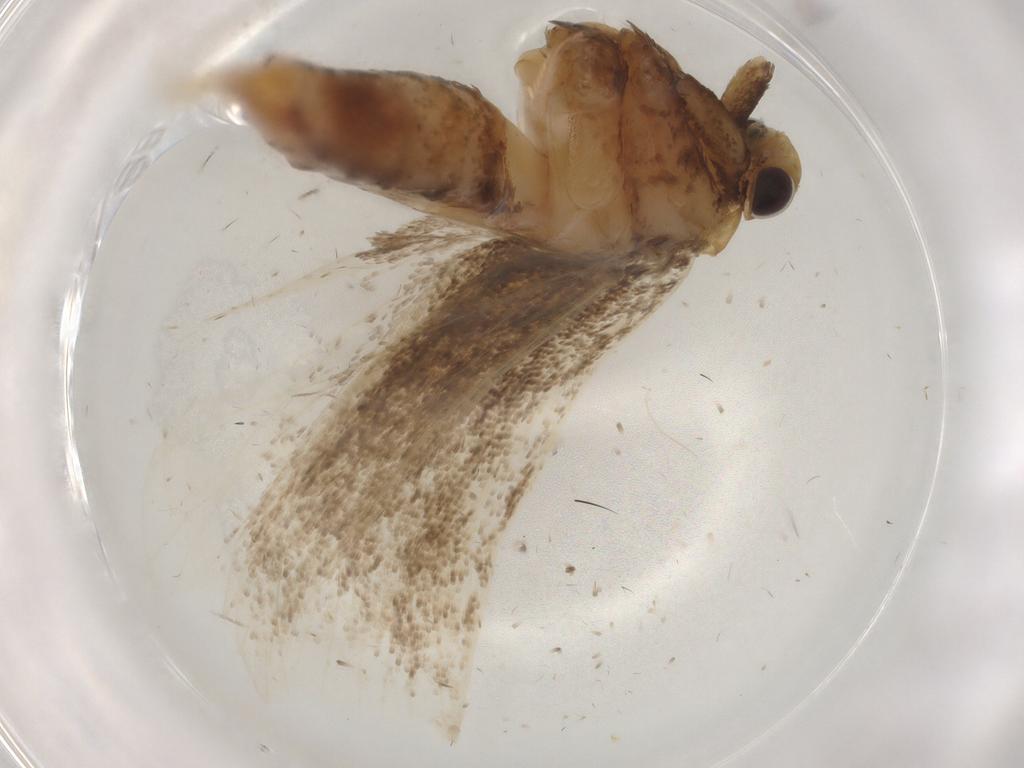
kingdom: Animalia
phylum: Arthropoda
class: Insecta
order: Lepidoptera
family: Lecithoceridae
